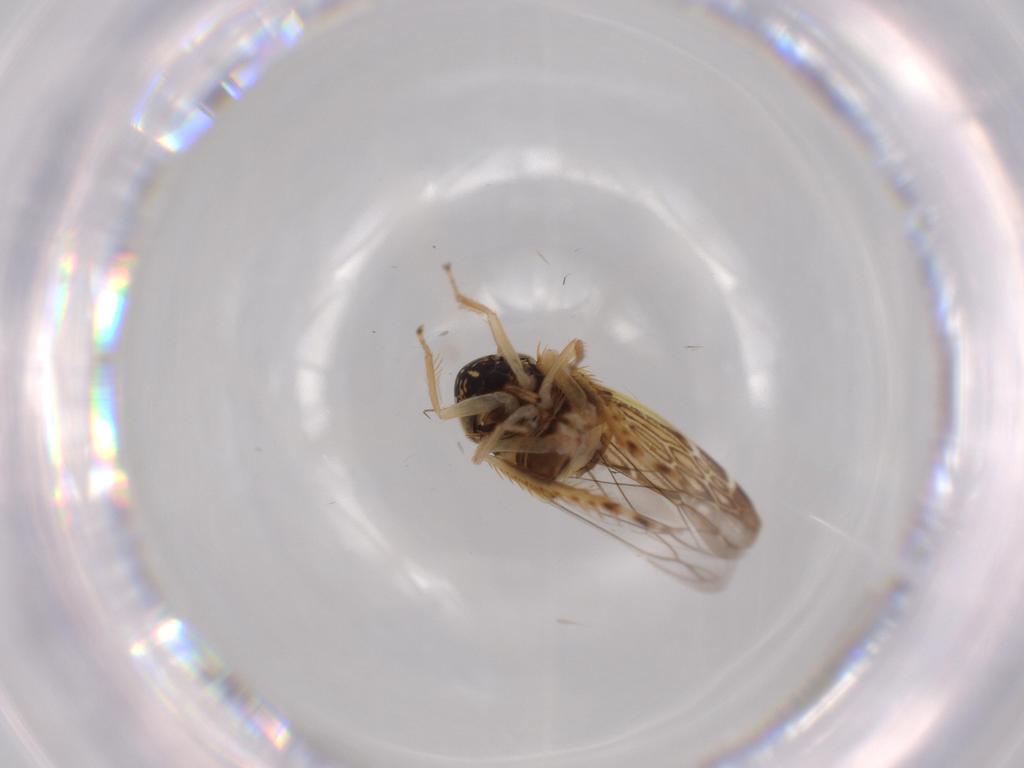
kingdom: Animalia
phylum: Arthropoda
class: Insecta
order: Hemiptera
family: Cicadellidae
